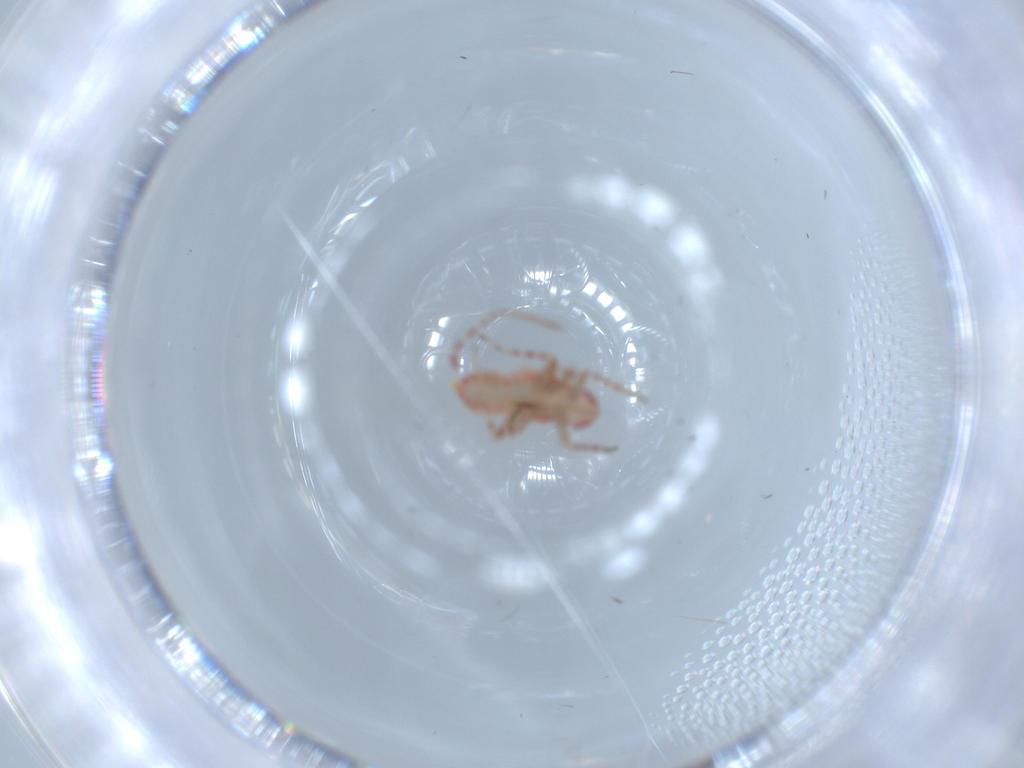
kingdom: Animalia
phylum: Arthropoda
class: Insecta
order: Hemiptera
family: Miridae
